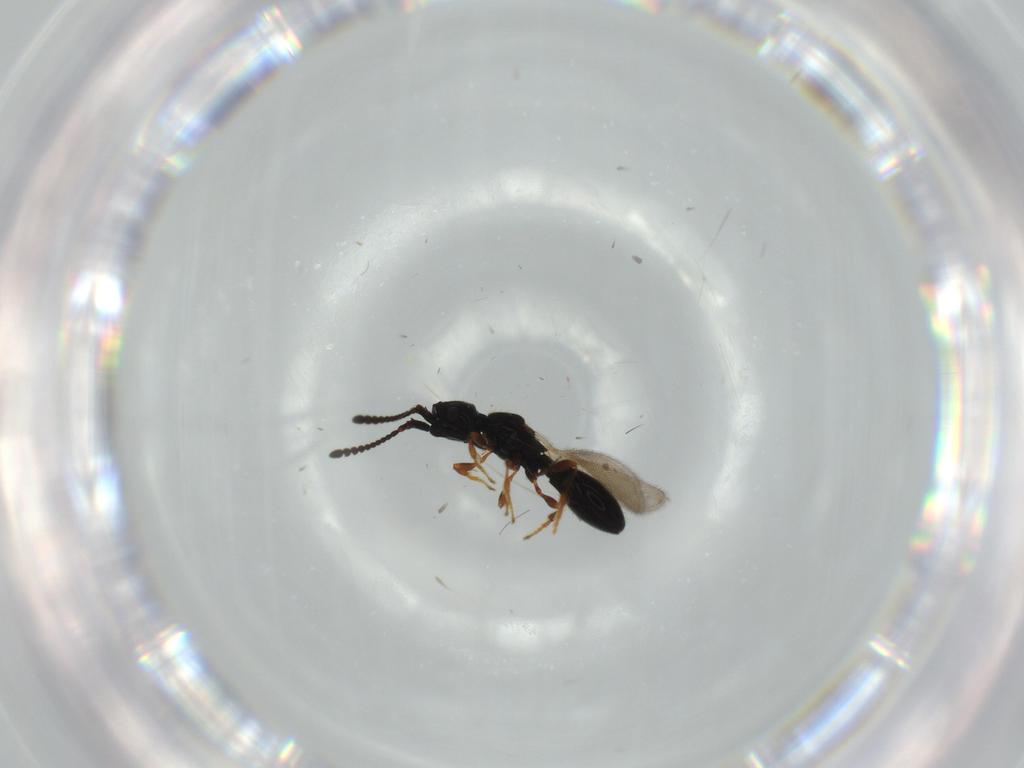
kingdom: Animalia
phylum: Arthropoda
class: Insecta
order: Hymenoptera
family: Diapriidae
